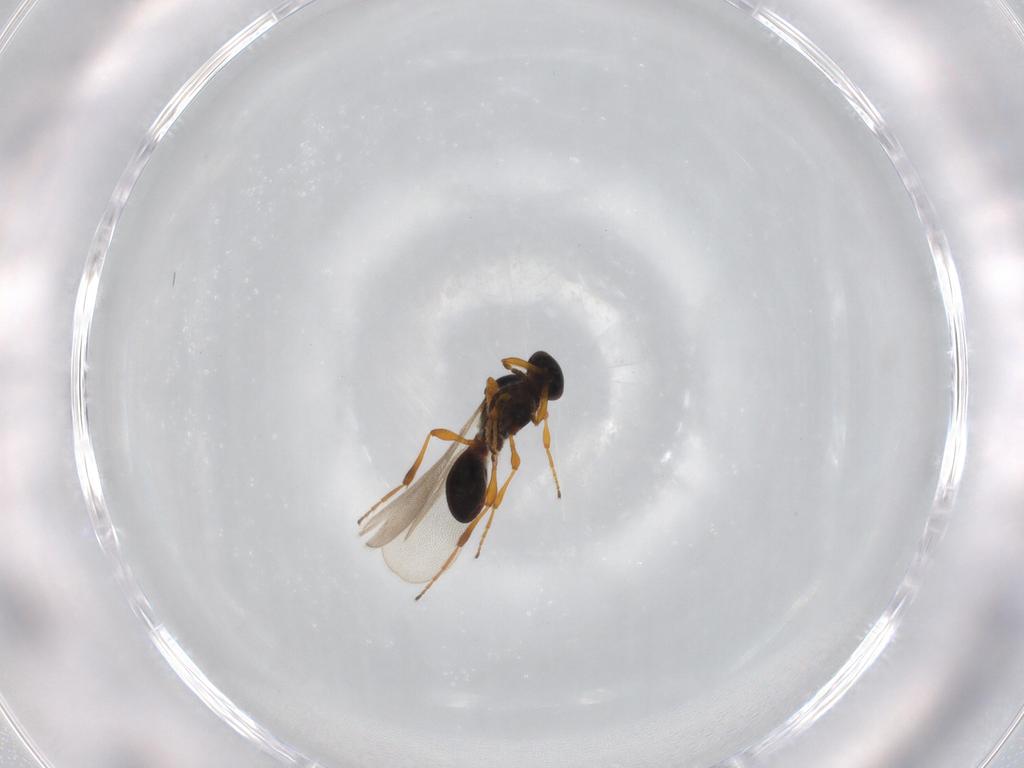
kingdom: Animalia
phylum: Arthropoda
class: Insecta
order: Hymenoptera
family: Platygastridae
